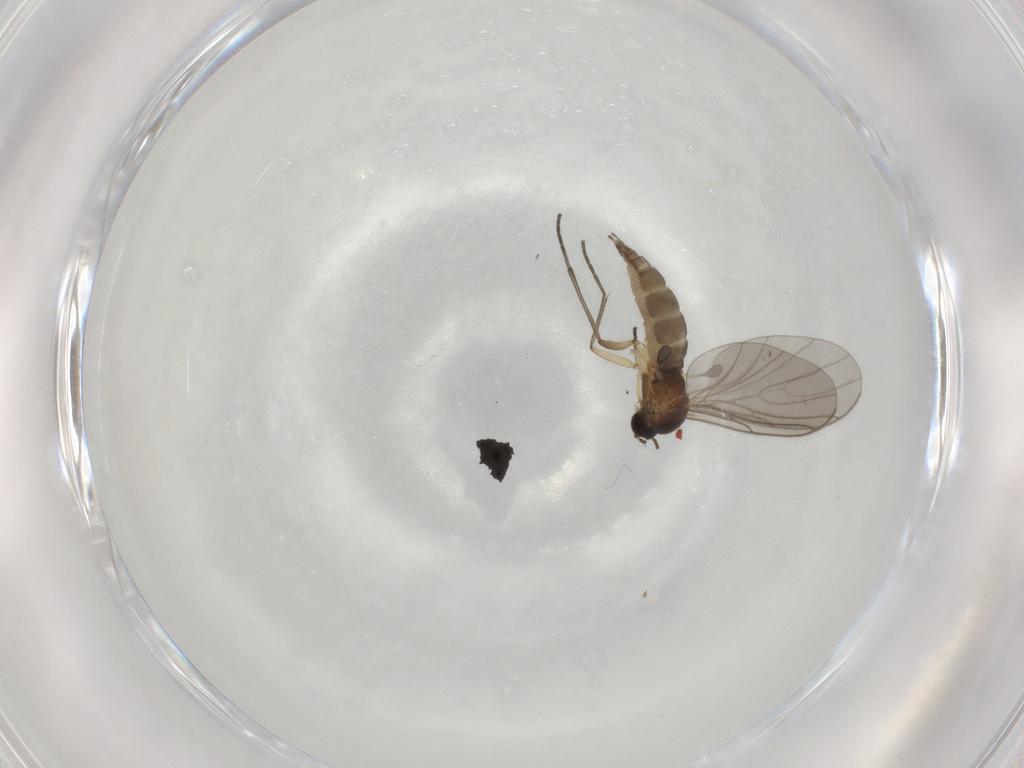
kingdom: Animalia
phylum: Arthropoda
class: Insecta
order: Diptera
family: Sciaridae
